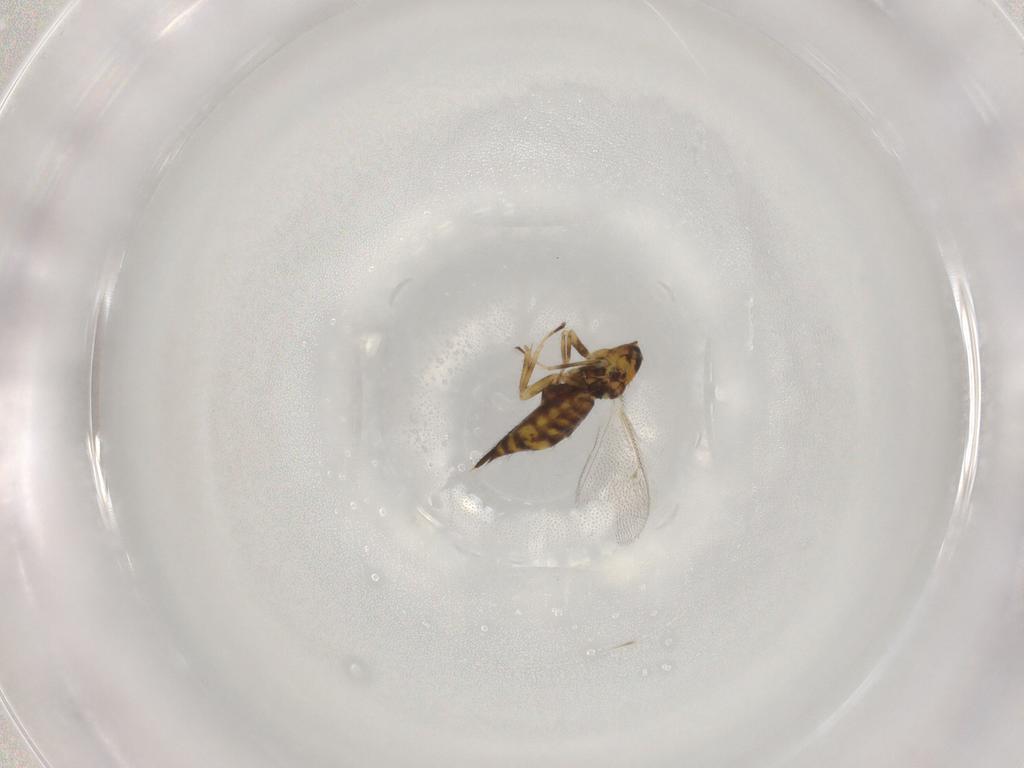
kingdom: Animalia
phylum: Arthropoda
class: Insecta
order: Hymenoptera
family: Eulophidae
